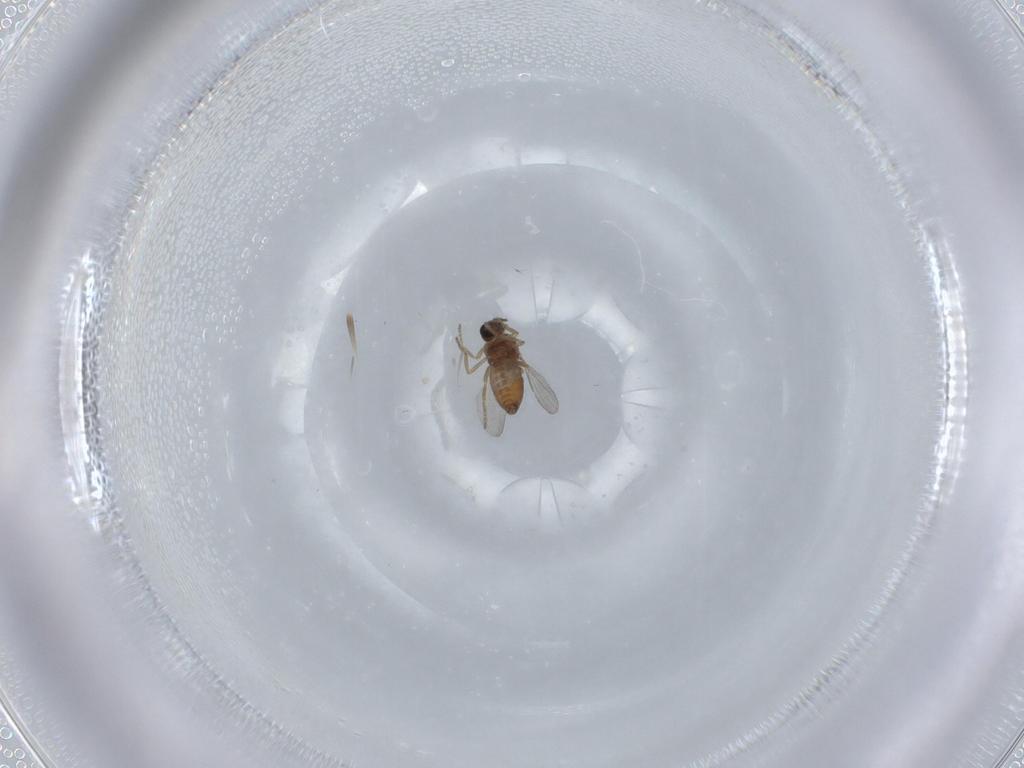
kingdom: Animalia
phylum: Arthropoda
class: Insecta
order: Diptera
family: Ceratopogonidae
